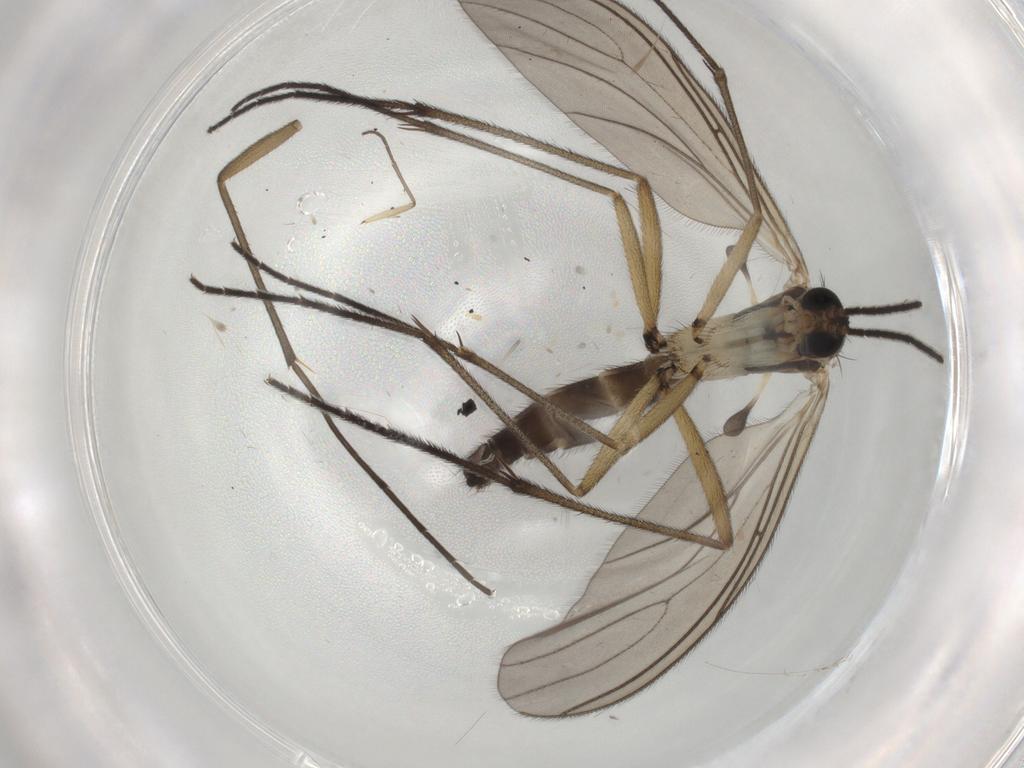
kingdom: Animalia
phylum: Arthropoda
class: Insecta
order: Diptera
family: Sciaridae
